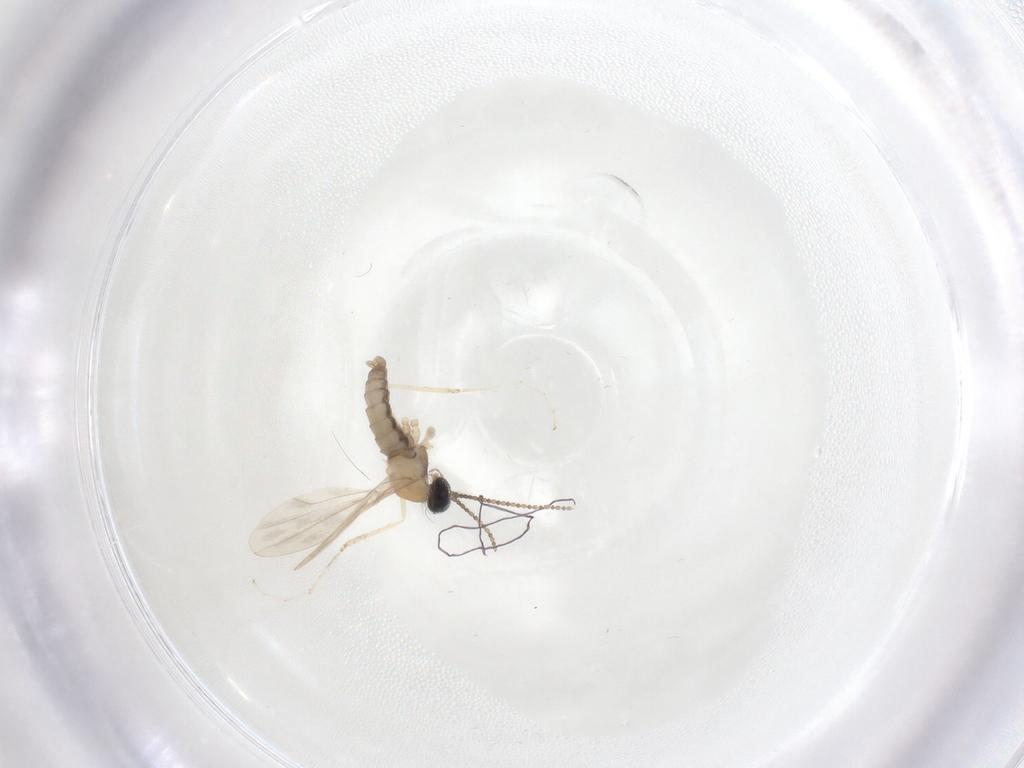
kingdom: Animalia
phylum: Arthropoda
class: Insecta
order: Diptera
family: Cecidomyiidae
